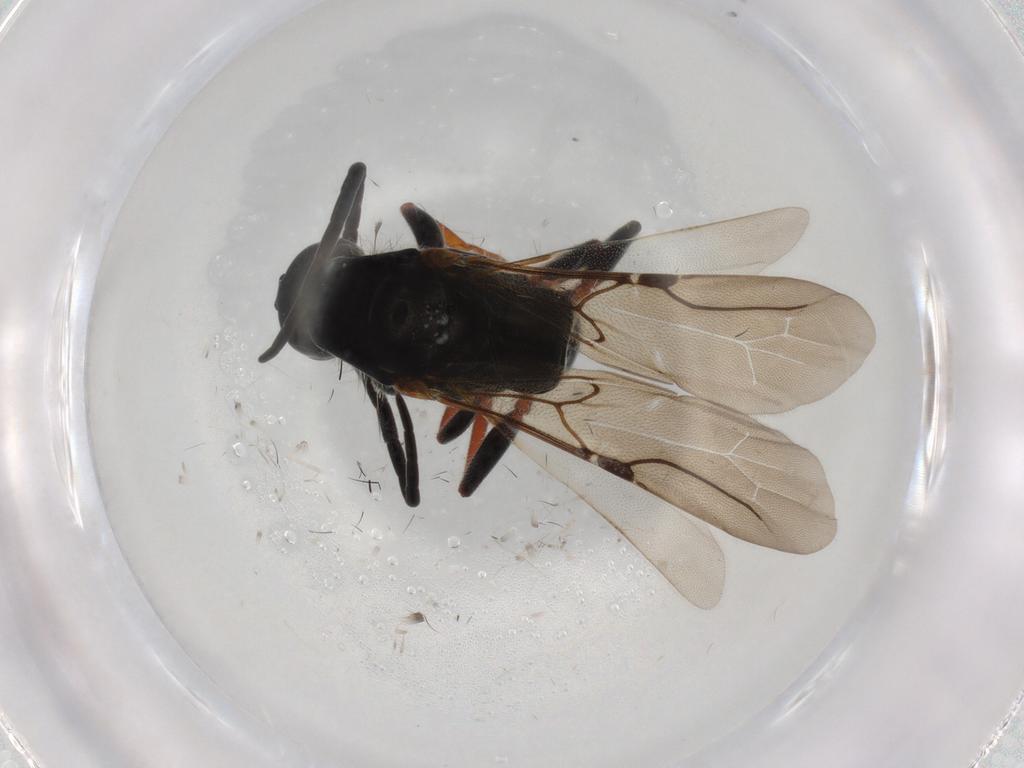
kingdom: Animalia
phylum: Arthropoda
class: Insecta
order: Hymenoptera
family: Bethylidae
